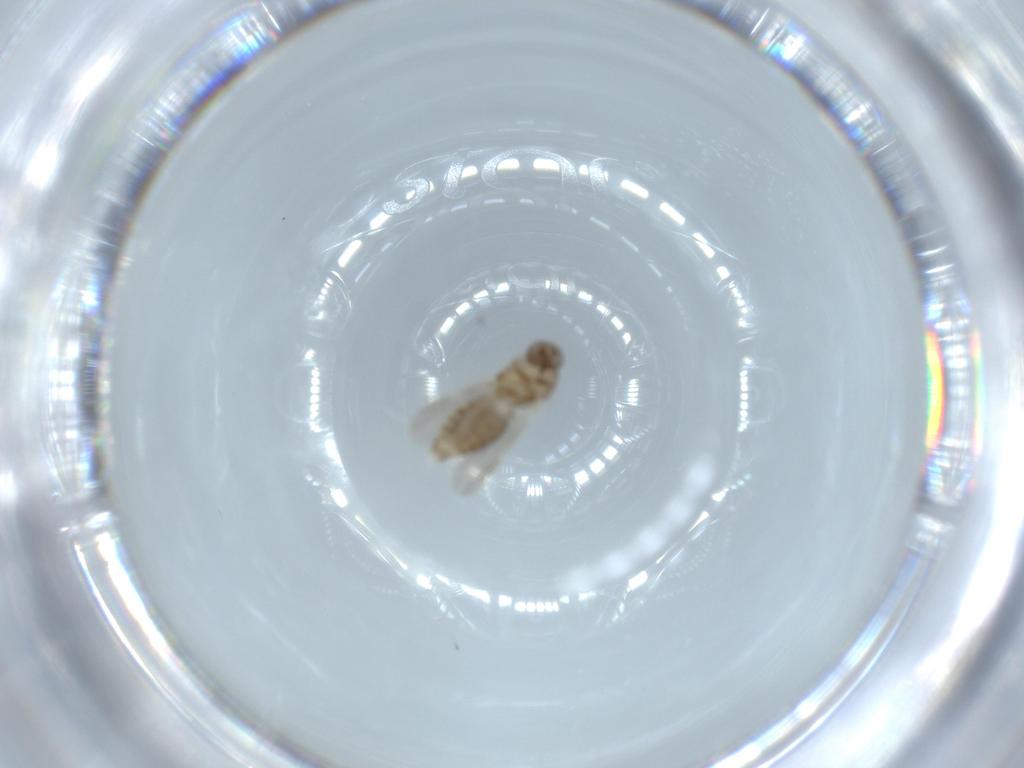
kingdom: Animalia
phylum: Arthropoda
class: Insecta
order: Diptera
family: Ceratopogonidae
